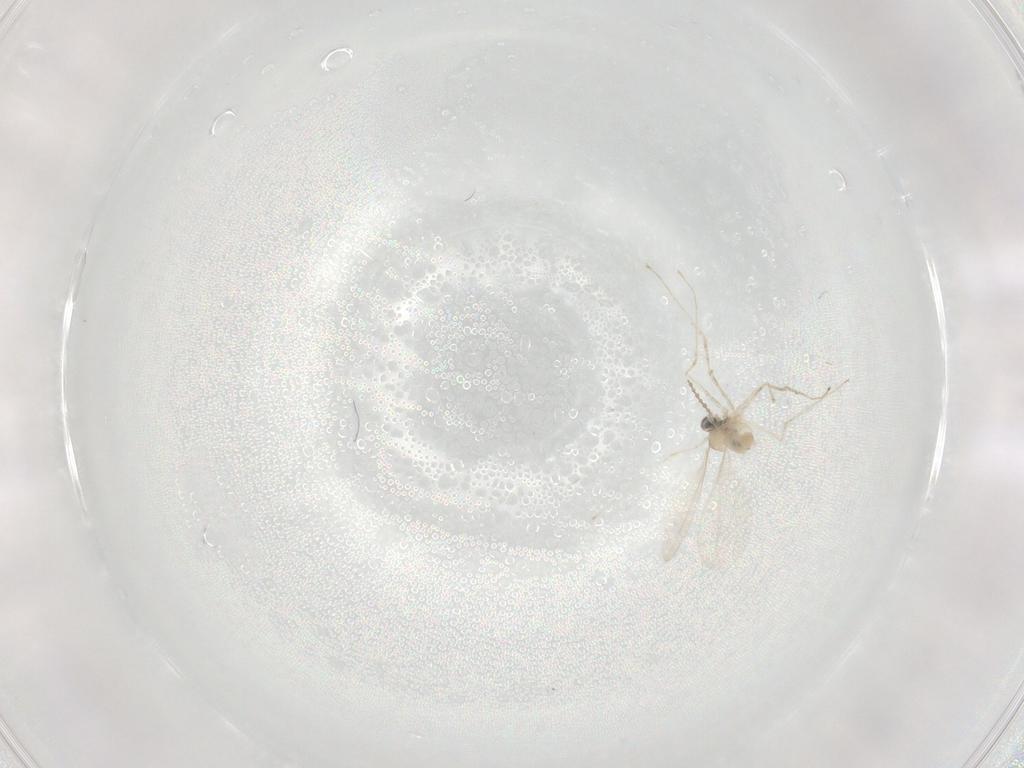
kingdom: Animalia
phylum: Arthropoda
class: Insecta
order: Diptera
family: Cecidomyiidae
